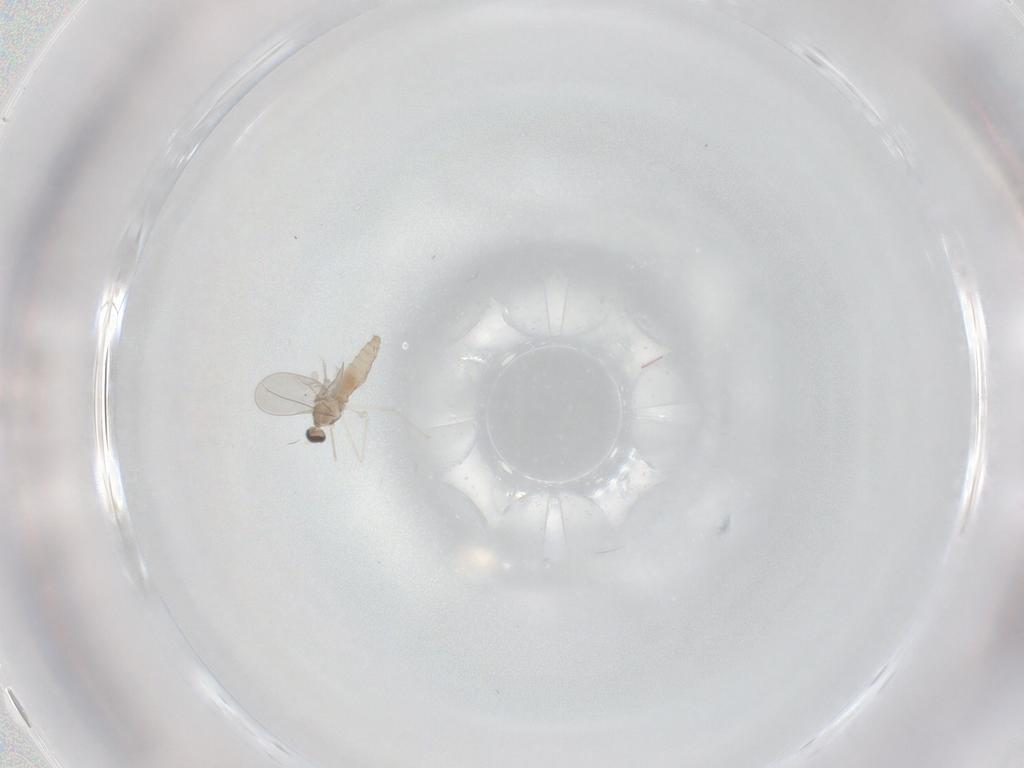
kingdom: Animalia
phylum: Arthropoda
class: Insecta
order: Diptera
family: Cecidomyiidae
